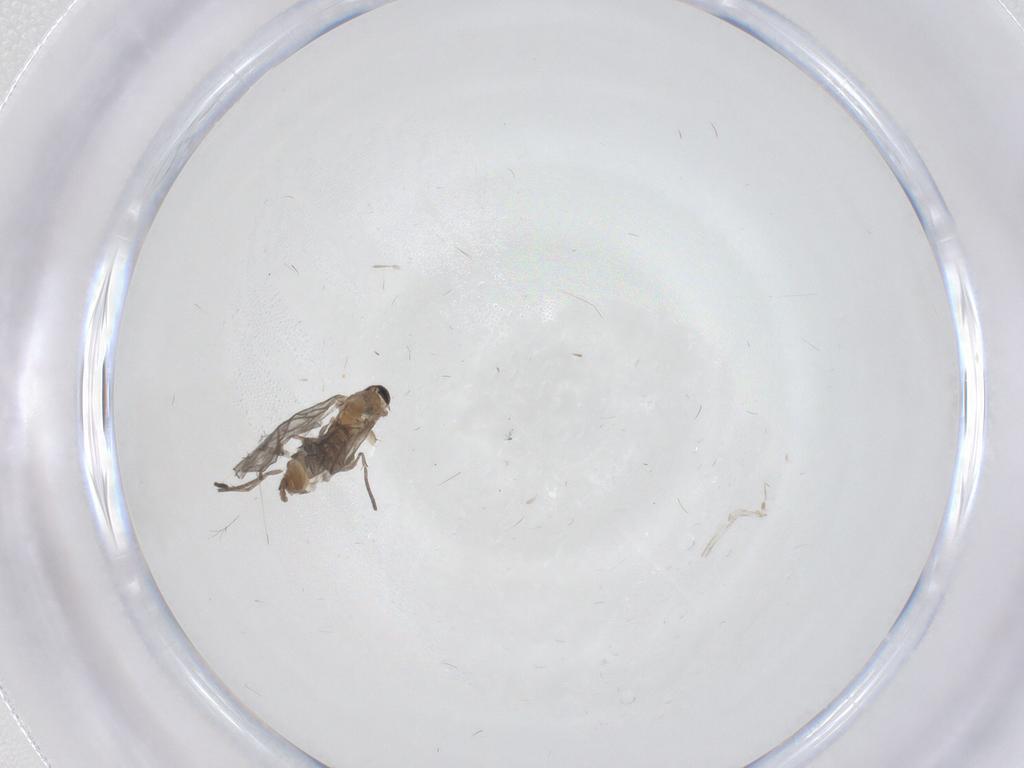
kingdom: Animalia
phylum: Arthropoda
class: Insecta
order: Diptera
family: Sciaridae
